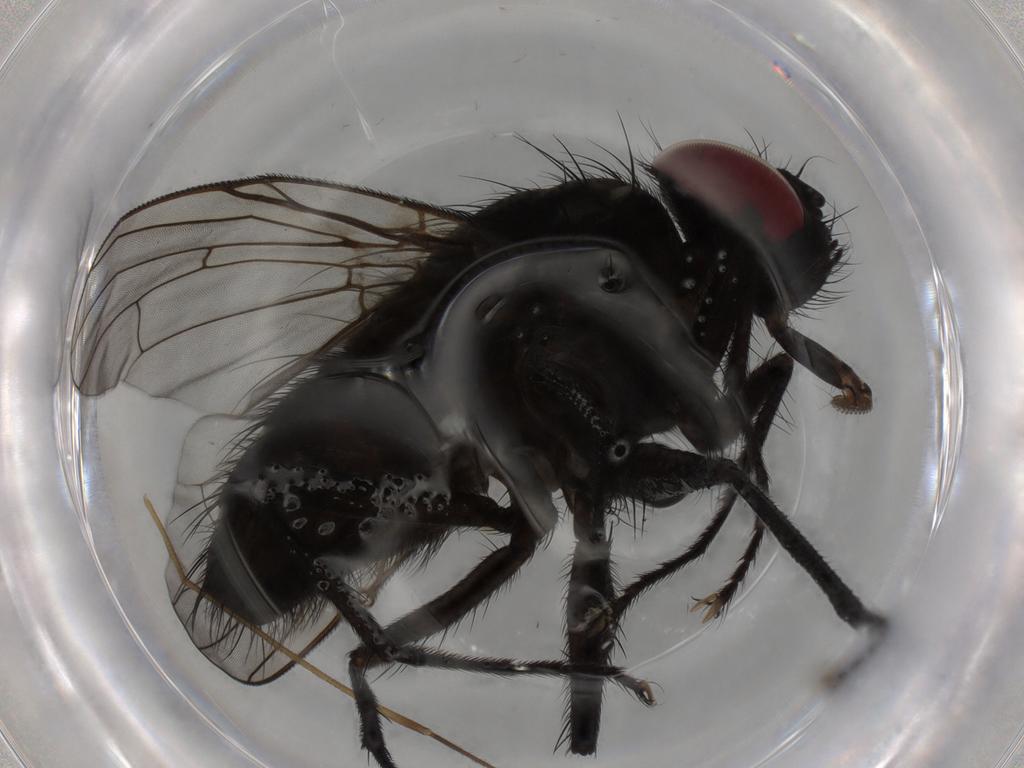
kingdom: Animalia
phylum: Arthropoda
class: Insecta
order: Diptera
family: Muscidae
